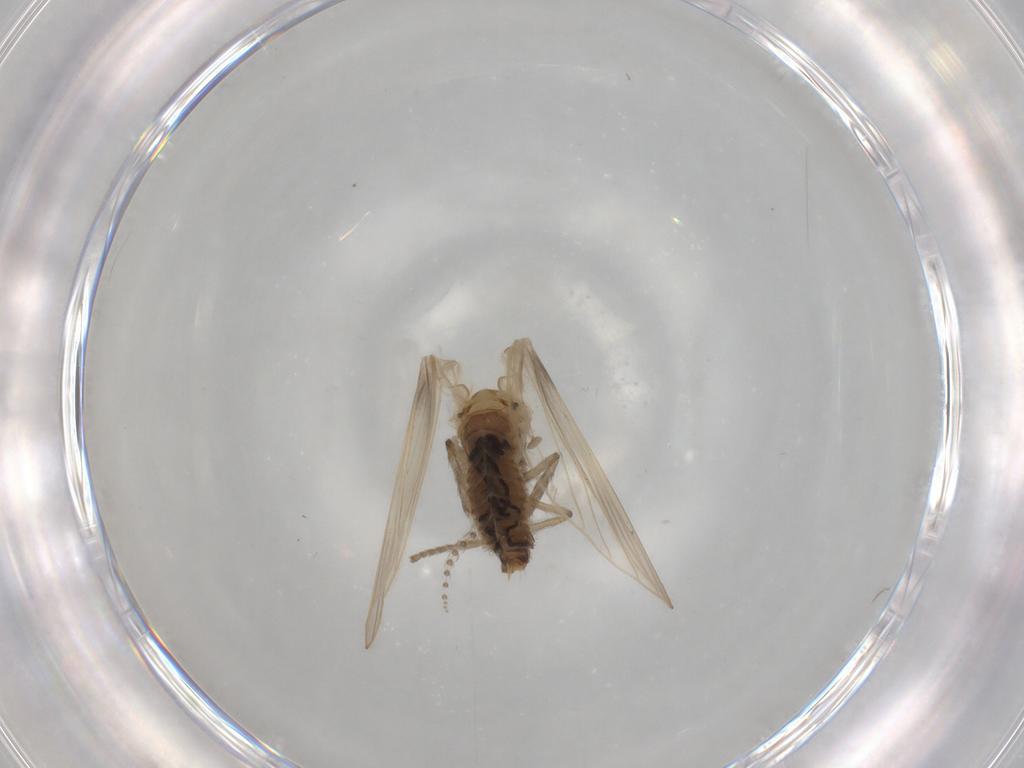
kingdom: Animalia
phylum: Arthropoda
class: Insecta
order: Diptera
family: Psychodidae
